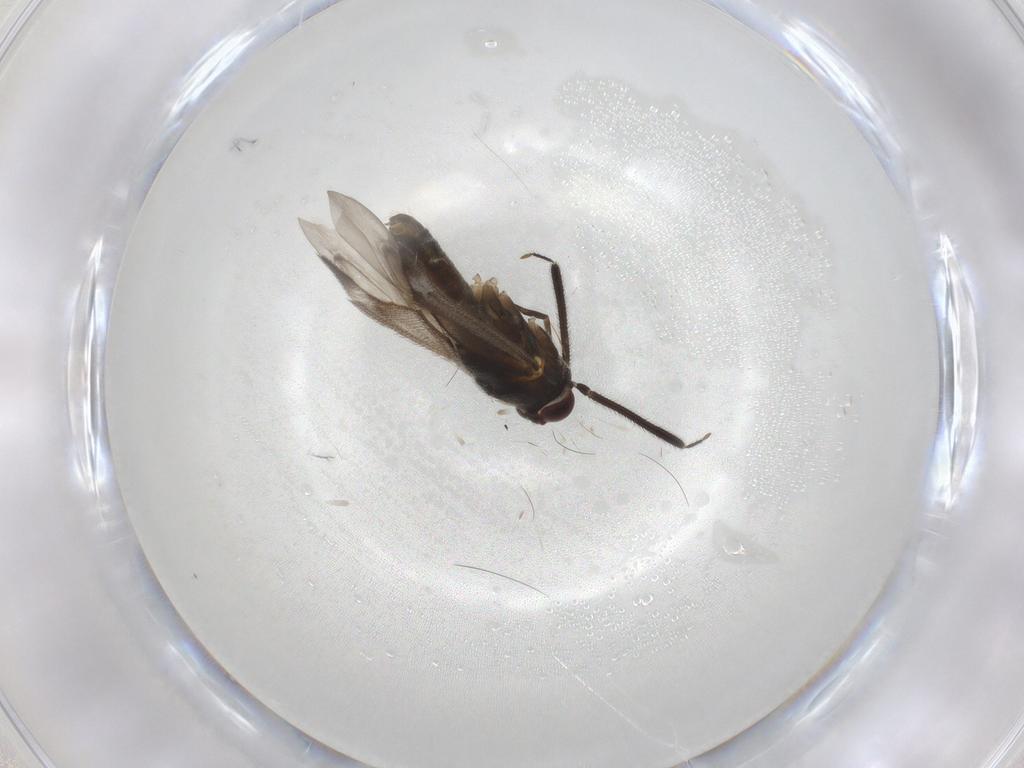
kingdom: Animalia
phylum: Arthropoda
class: Insecta
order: Hemiptera
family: Miridae
